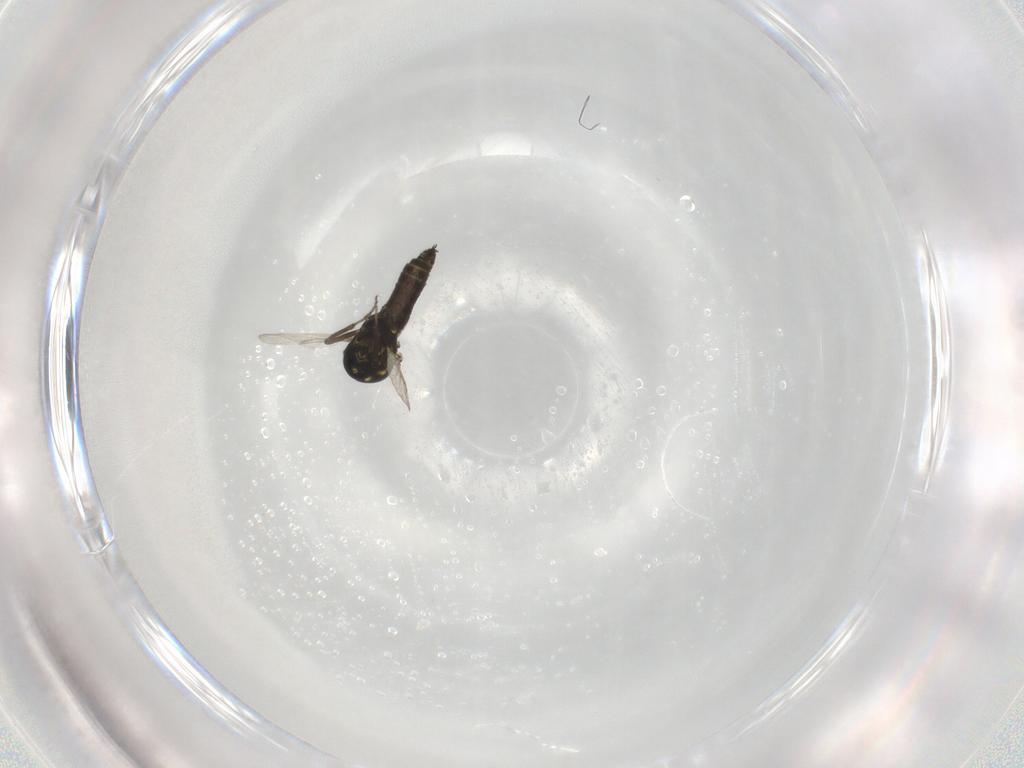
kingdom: Animalia
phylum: Arthropoda
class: Insecta
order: Diptera
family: Ceratopogonidae
